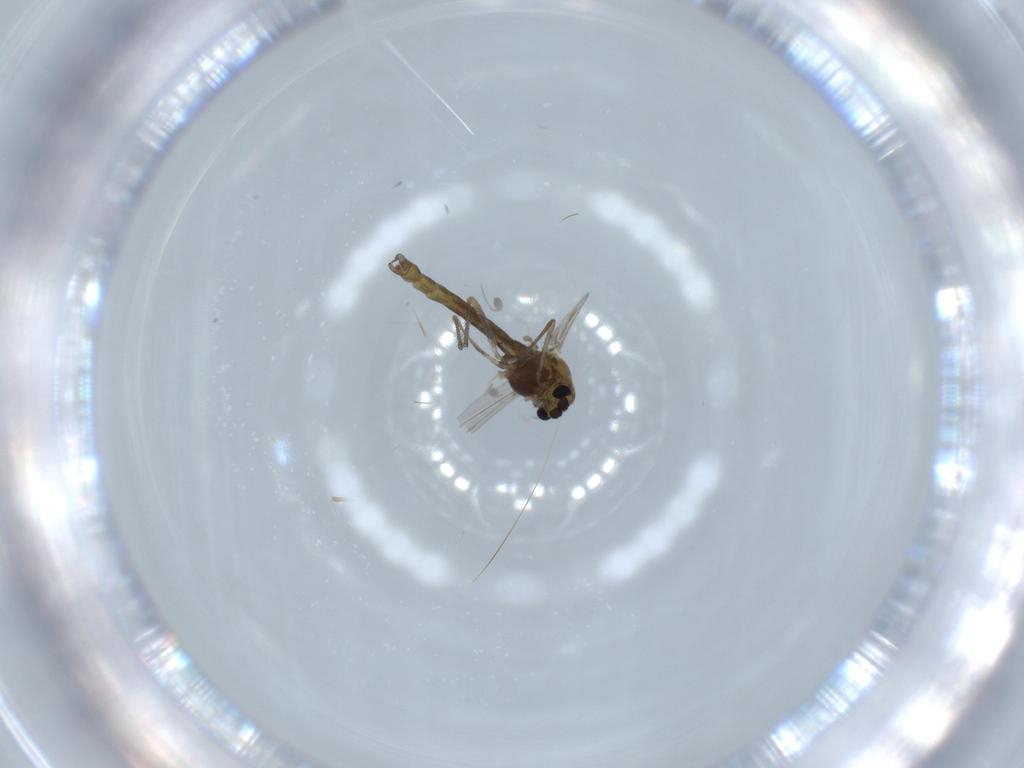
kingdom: Animalia
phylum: Arthropoda
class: Insecta
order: Diptera
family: Chironomidae
